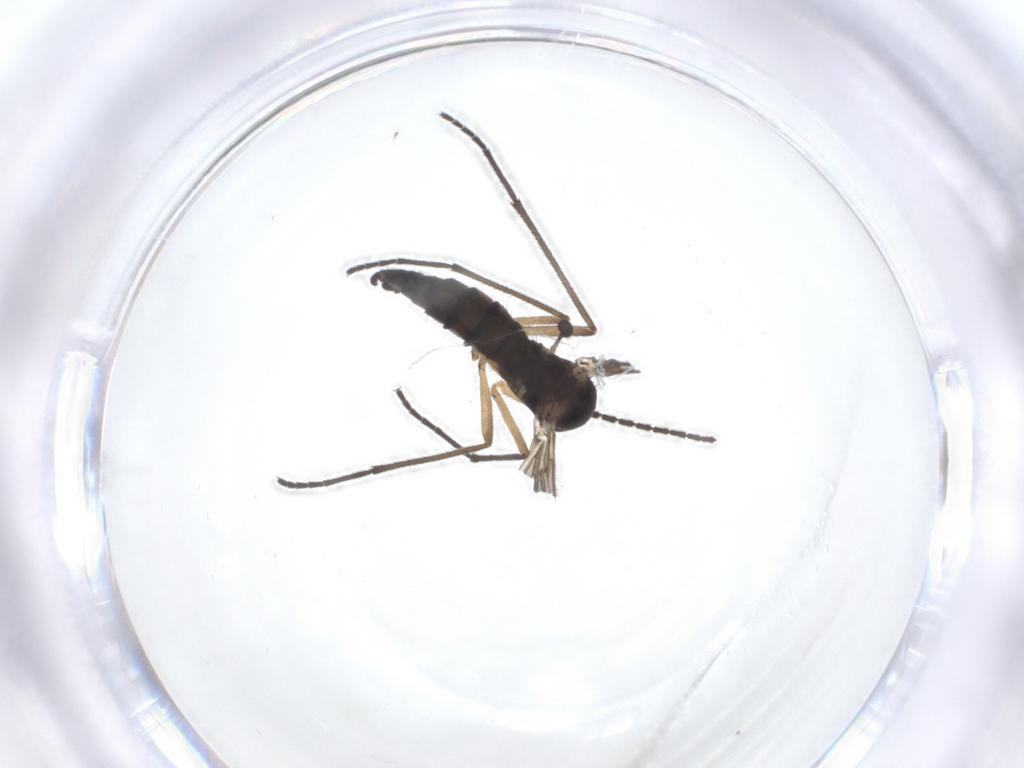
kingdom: Animalia
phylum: Arthropoda
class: Insecta
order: Diptera
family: Sciaridae
